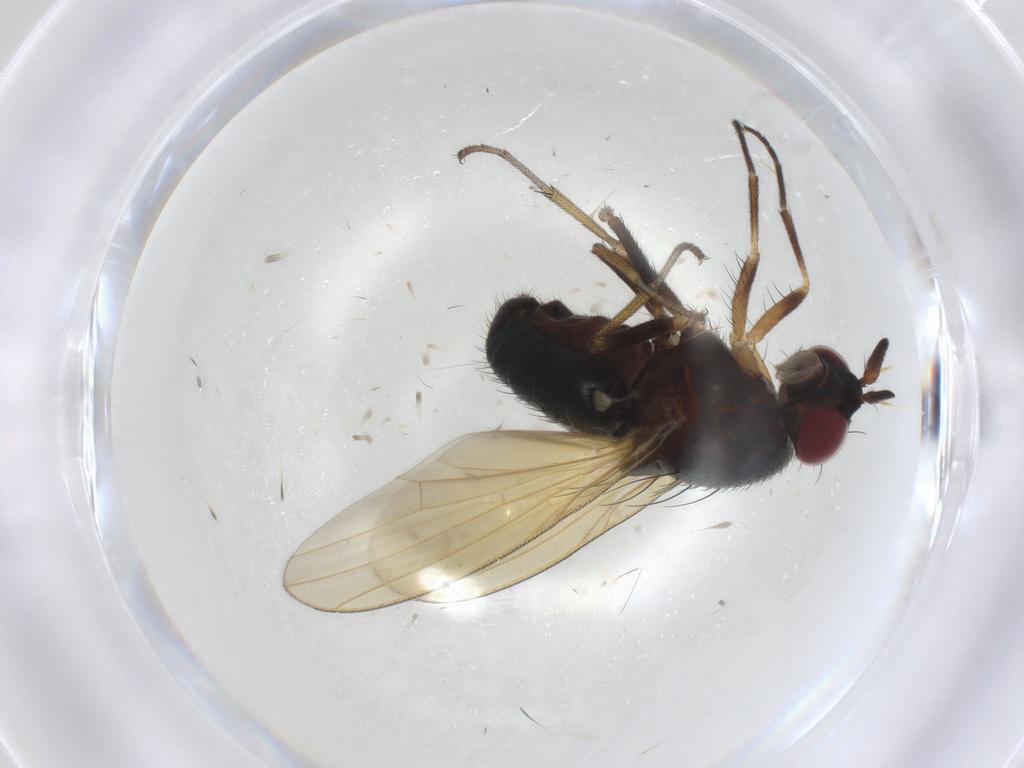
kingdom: Animalia
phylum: Arthropoda
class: Insecta
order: Diptera
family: Lauxaniidae
